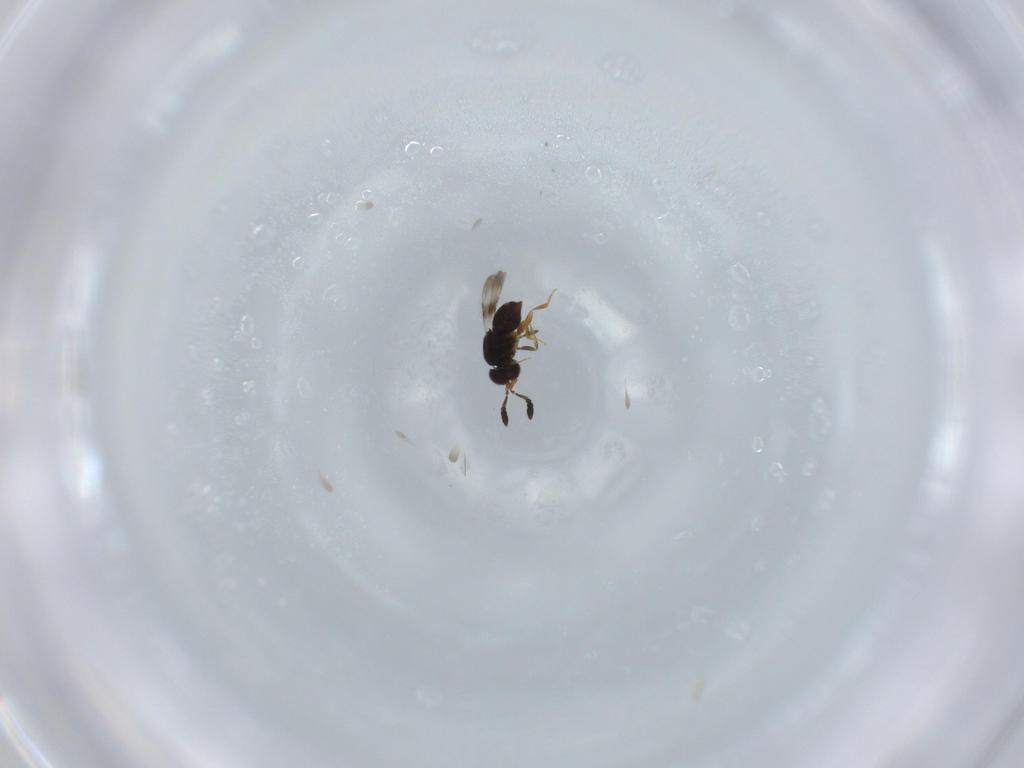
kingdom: Animalia
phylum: Arthropoda
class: Insecta
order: Hymenoptera
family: Ceraphronidae
